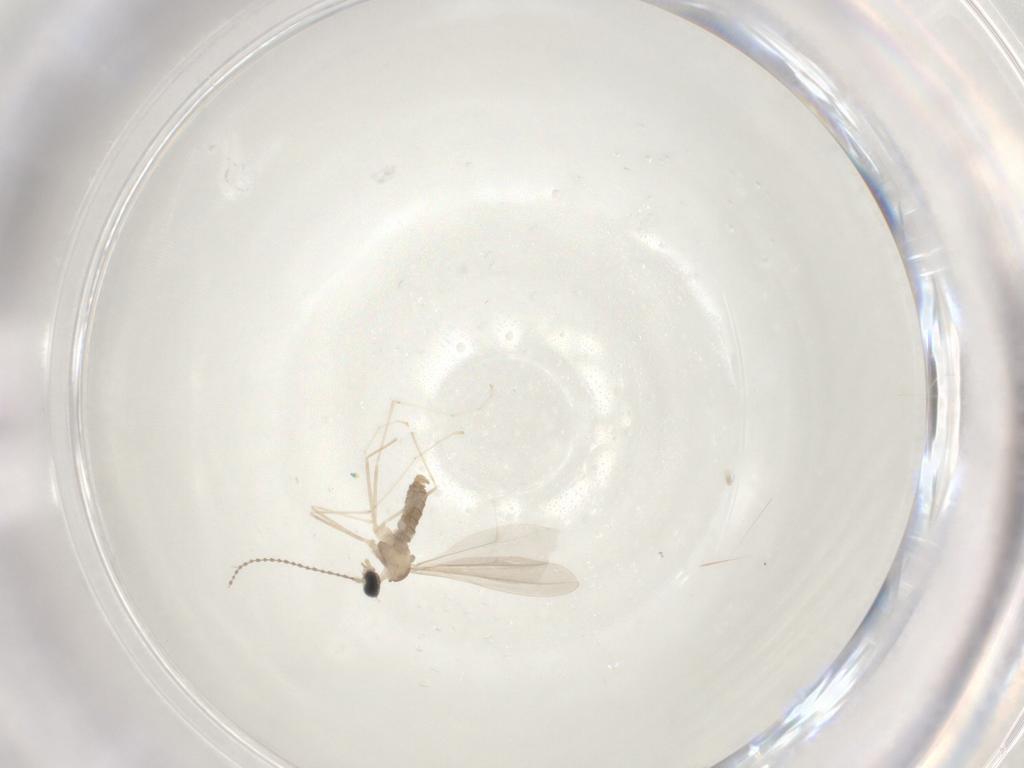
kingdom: Animalia
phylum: Arthropoda
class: Insecta
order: Diptera
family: Cecidomyiidae
